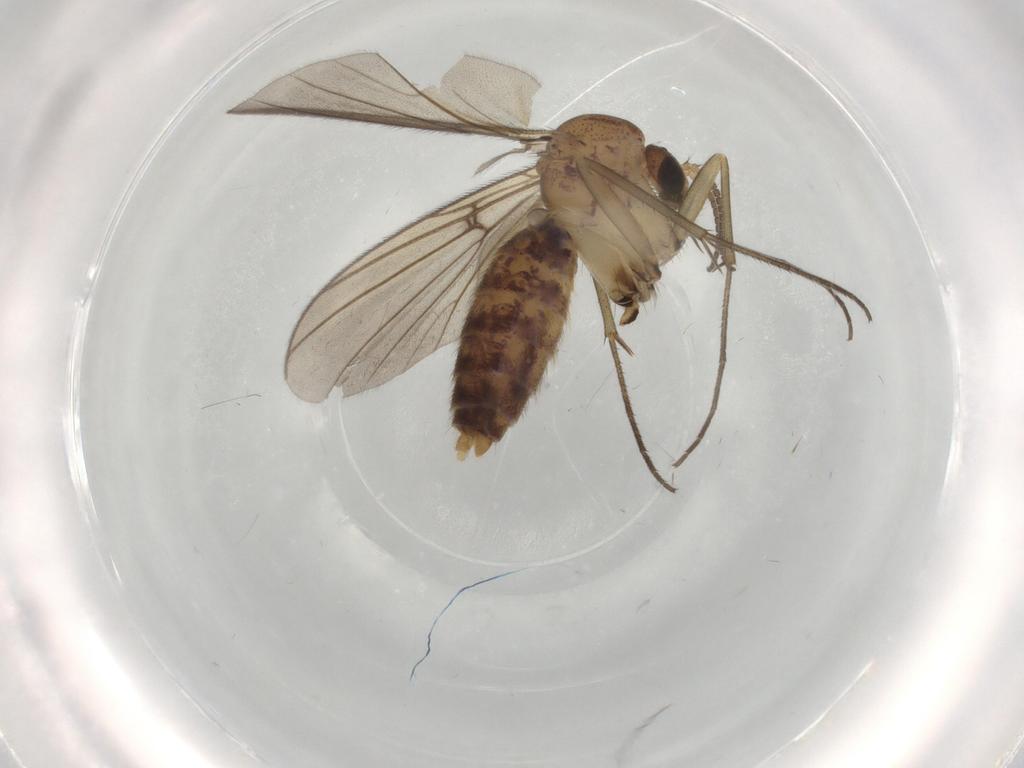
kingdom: Animalia
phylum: Arthropoda
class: Insecta
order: Diptera
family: Mycetophilidae
